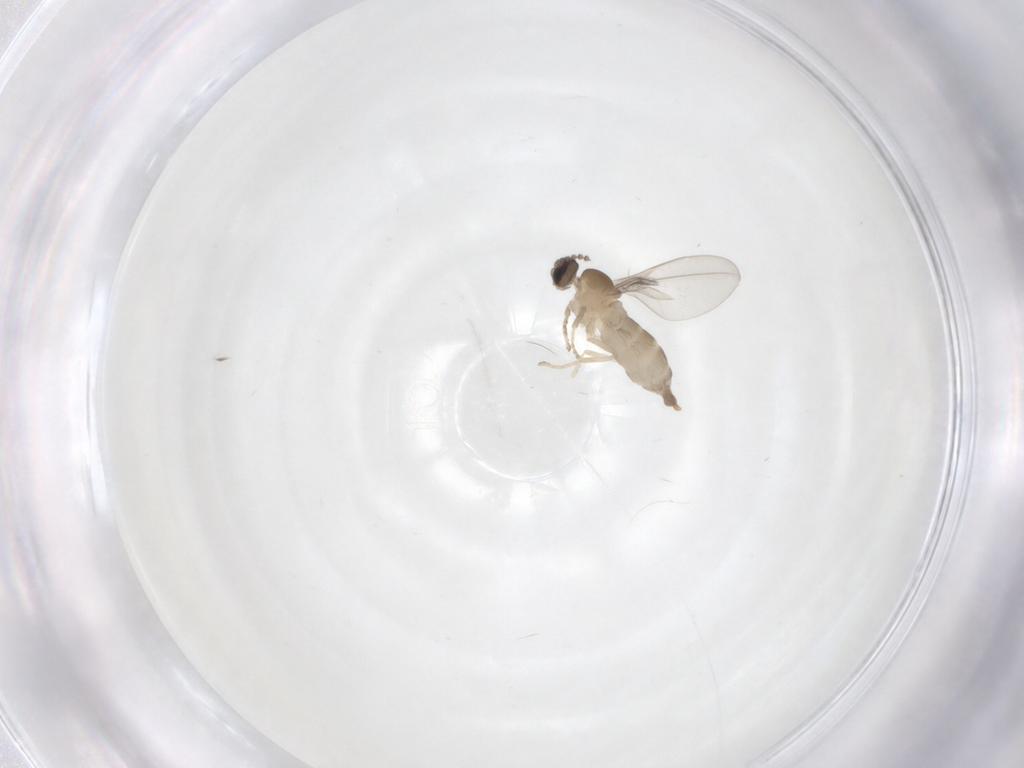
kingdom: Animalia
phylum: Arthropoda
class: Insecta
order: Diptera
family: Cecidomyiidae
